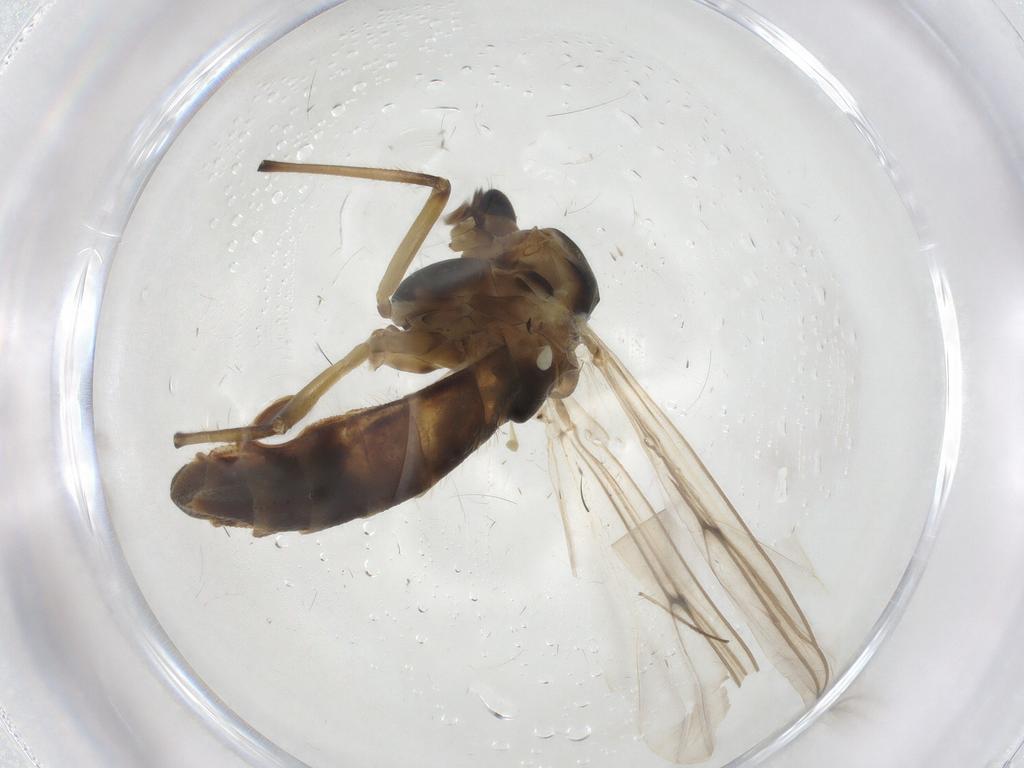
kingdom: Animalia
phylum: Arthropoda
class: Insecta
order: Diptera
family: Chironomidae
